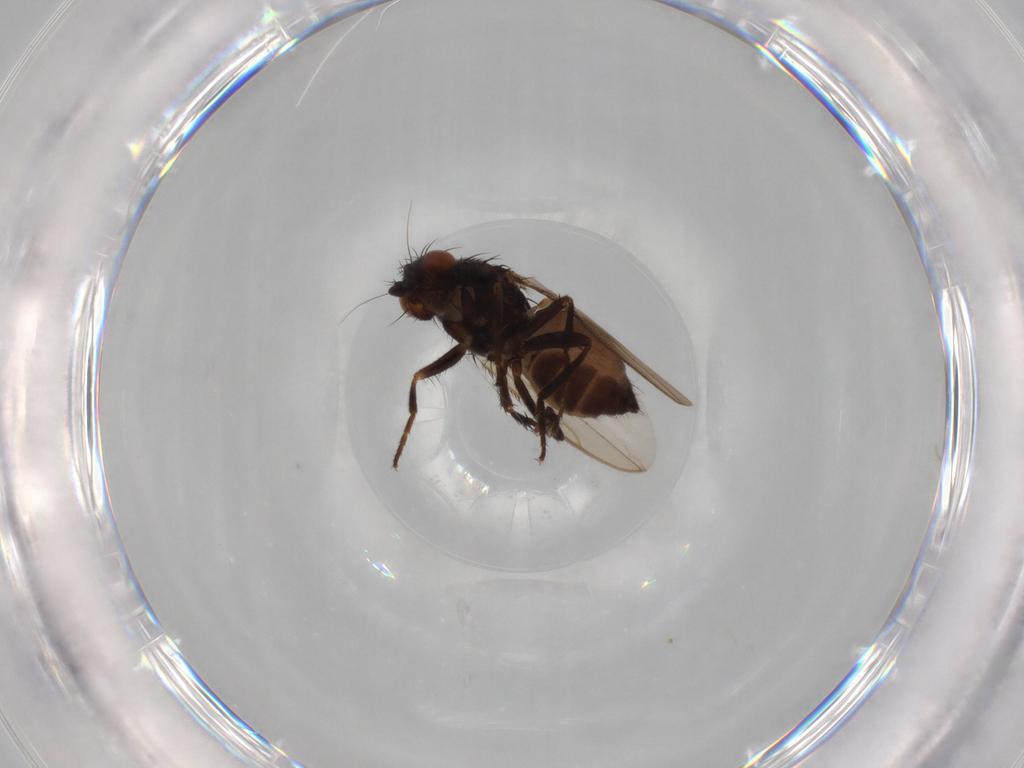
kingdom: Animalia
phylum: Arthropoda
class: Insecta
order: Diptera
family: Sphaeroceridae
